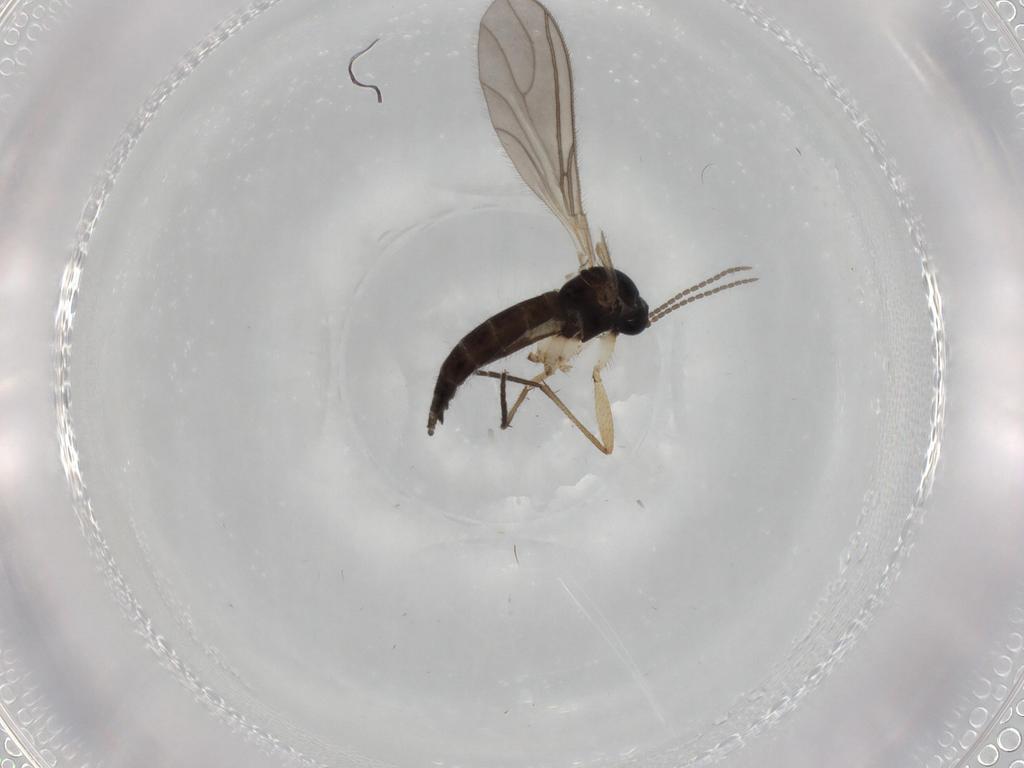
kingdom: Animalia
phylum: Arthropoda
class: Insecta
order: Diptera
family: Sciaridae
